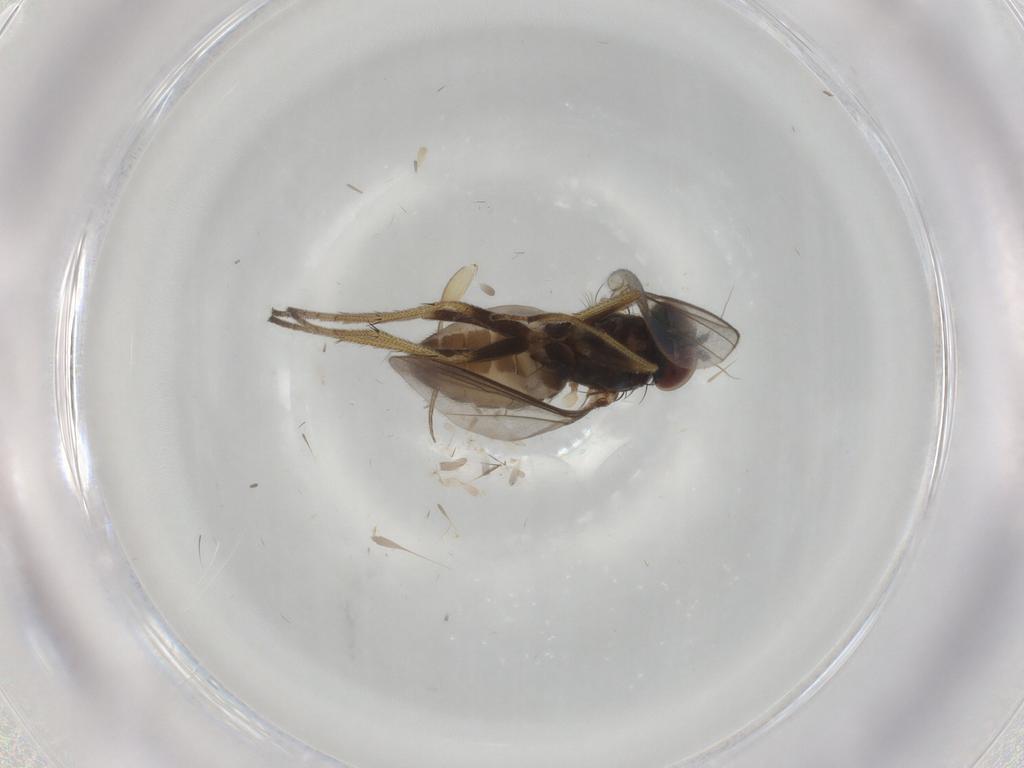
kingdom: Animalia
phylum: Arthropoda
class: Insecta
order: Diptera
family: Dolichopodidae
